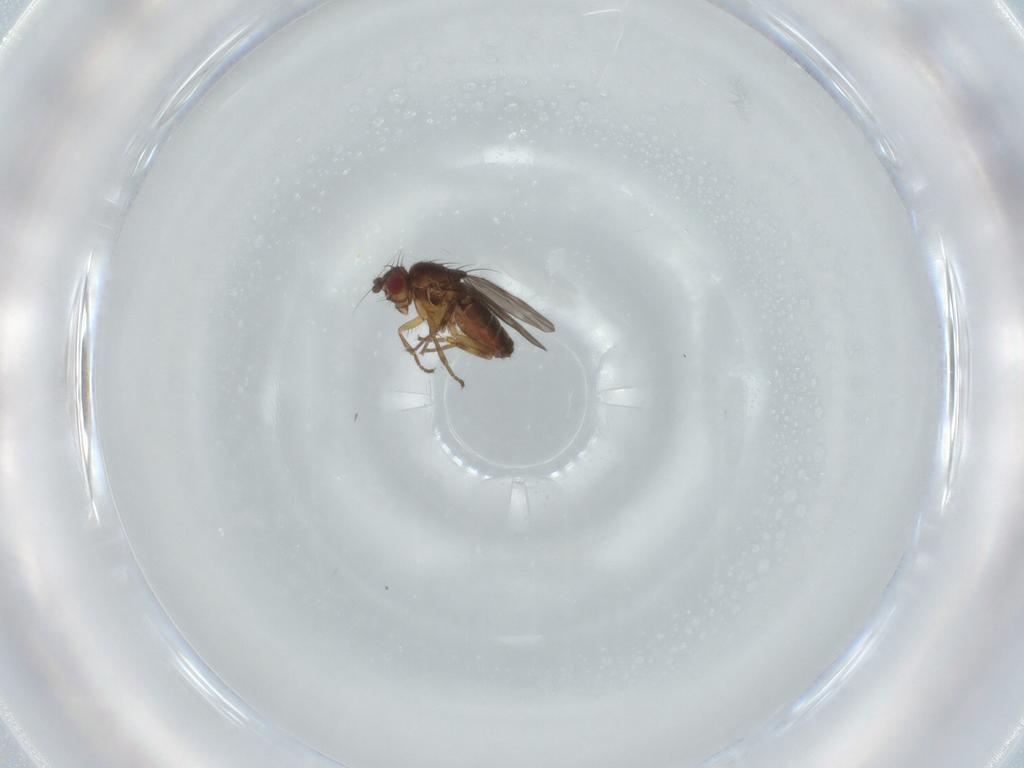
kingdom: Animalia
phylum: Arthropoda
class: Insecta
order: Diptera
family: Sphaeroceridae
